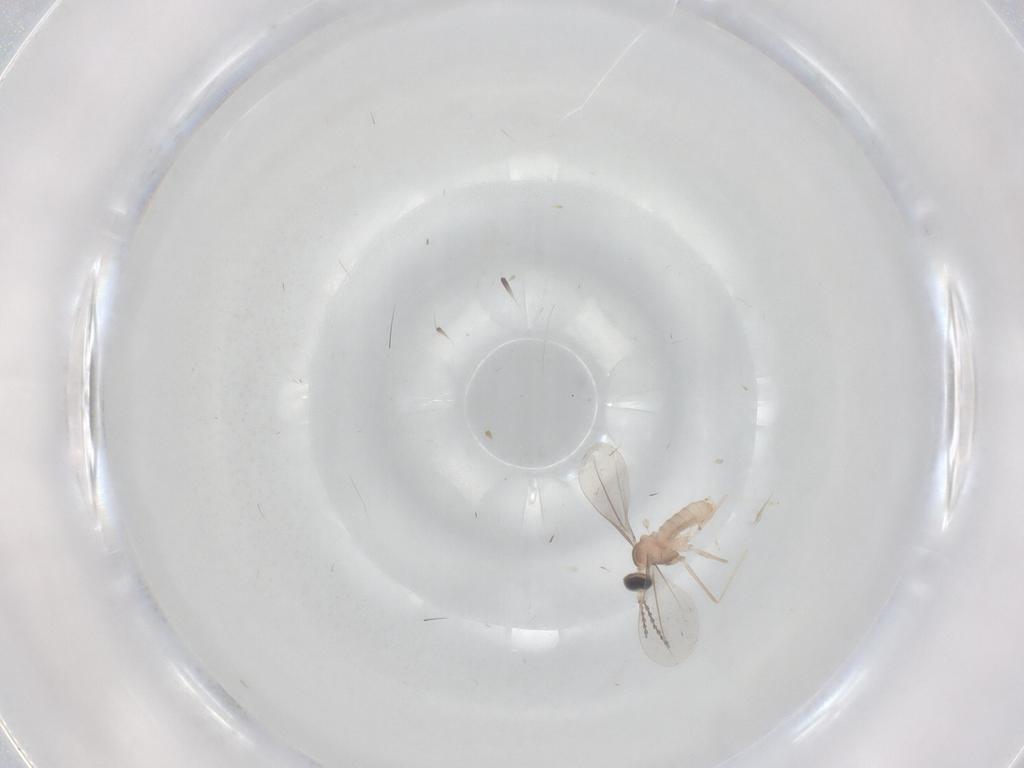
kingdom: Animalia
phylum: Arthropoda
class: Insecta
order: Diptera
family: Cecidomyiidae
